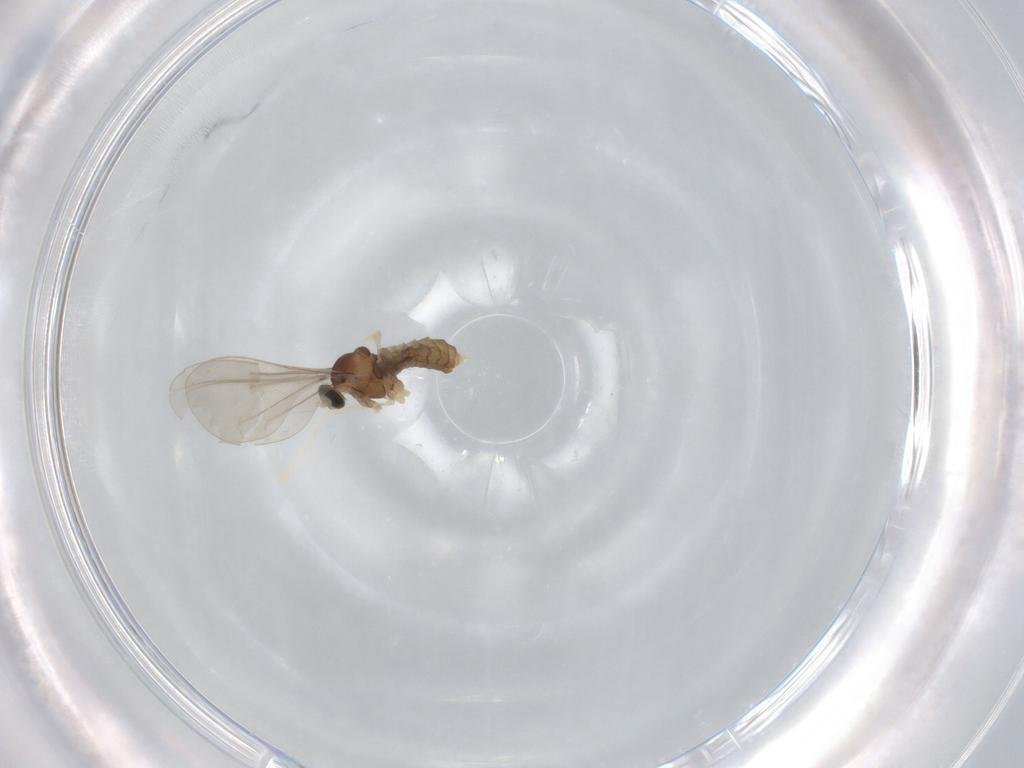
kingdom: Animalia
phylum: Arthropoda
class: Insecta
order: Diptera
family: Cecidomyiidae
